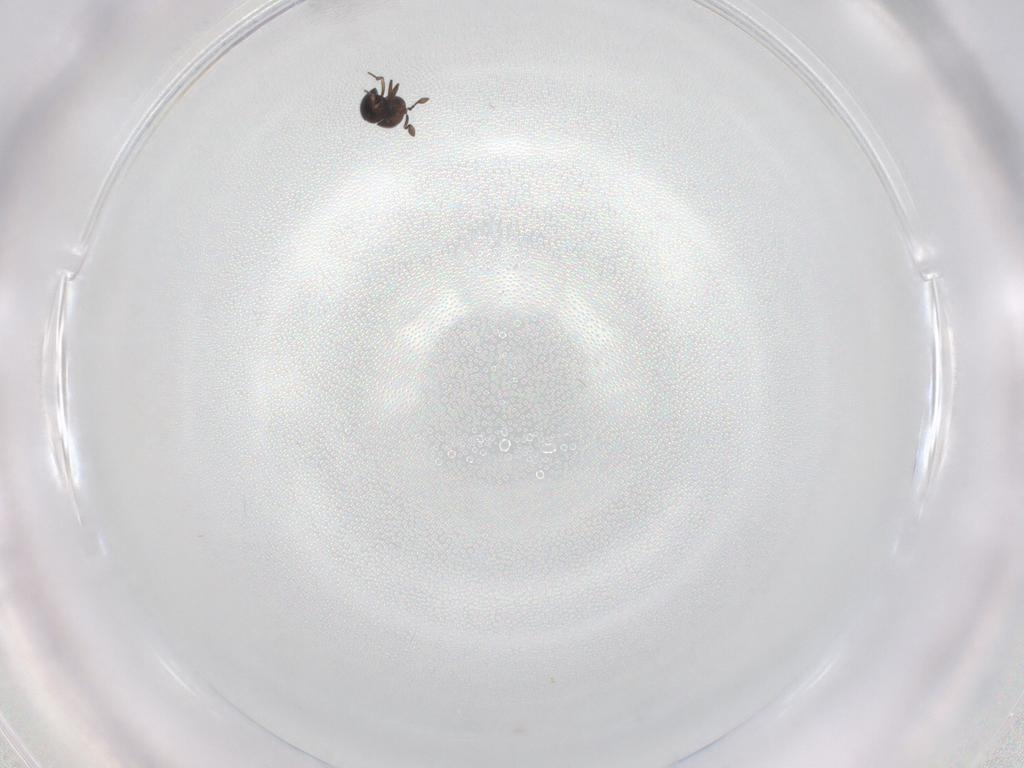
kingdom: Animalia
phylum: Arthropoda
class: Insecta
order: Hymenoptera
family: Scelionidae
